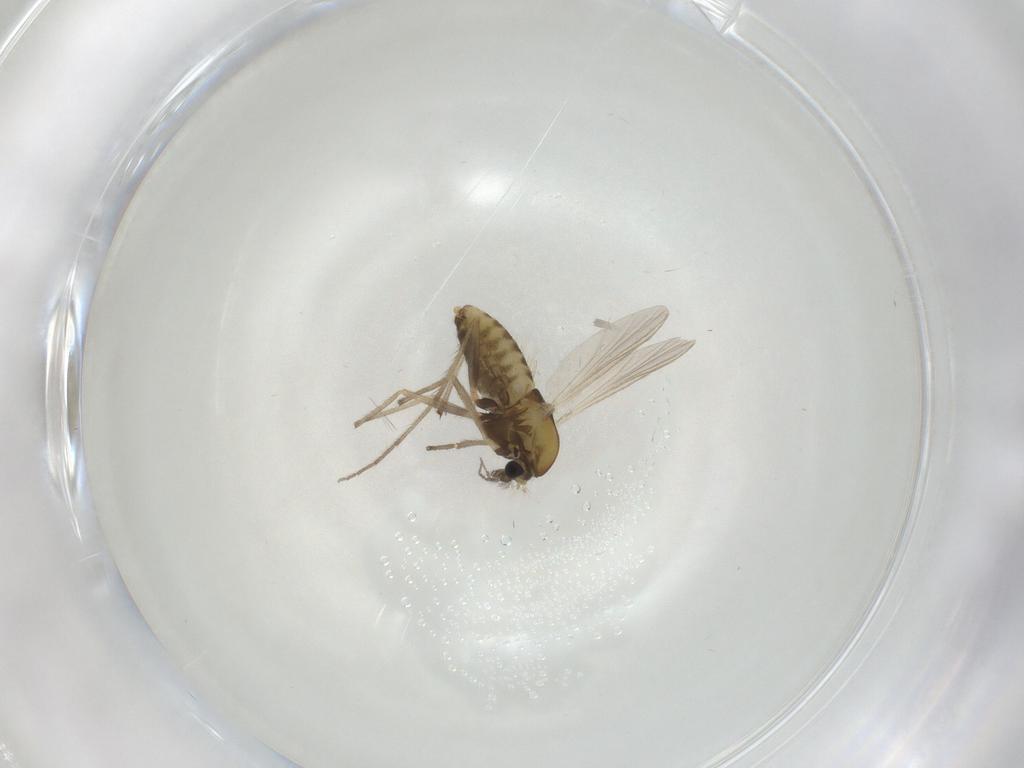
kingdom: Animalia
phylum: Arthropoda
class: Insecta
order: Diptera
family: Chironomidae
